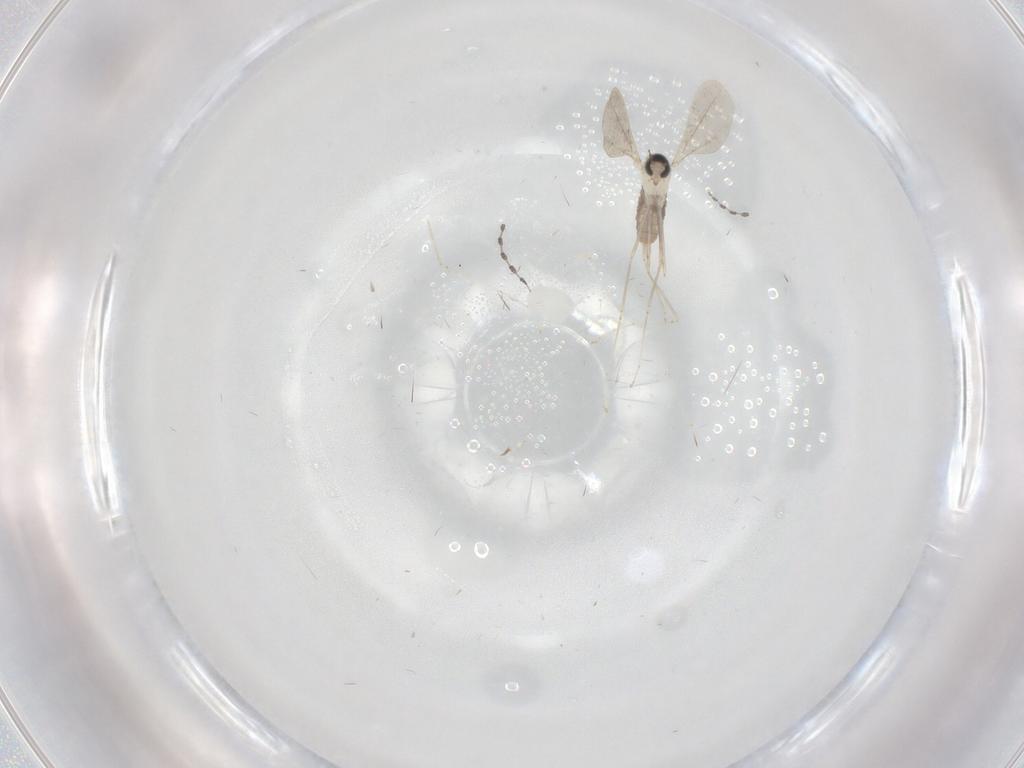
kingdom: Animalia
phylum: Arthropoda
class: Insecta
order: Diptera
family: Cecidomyiidae
